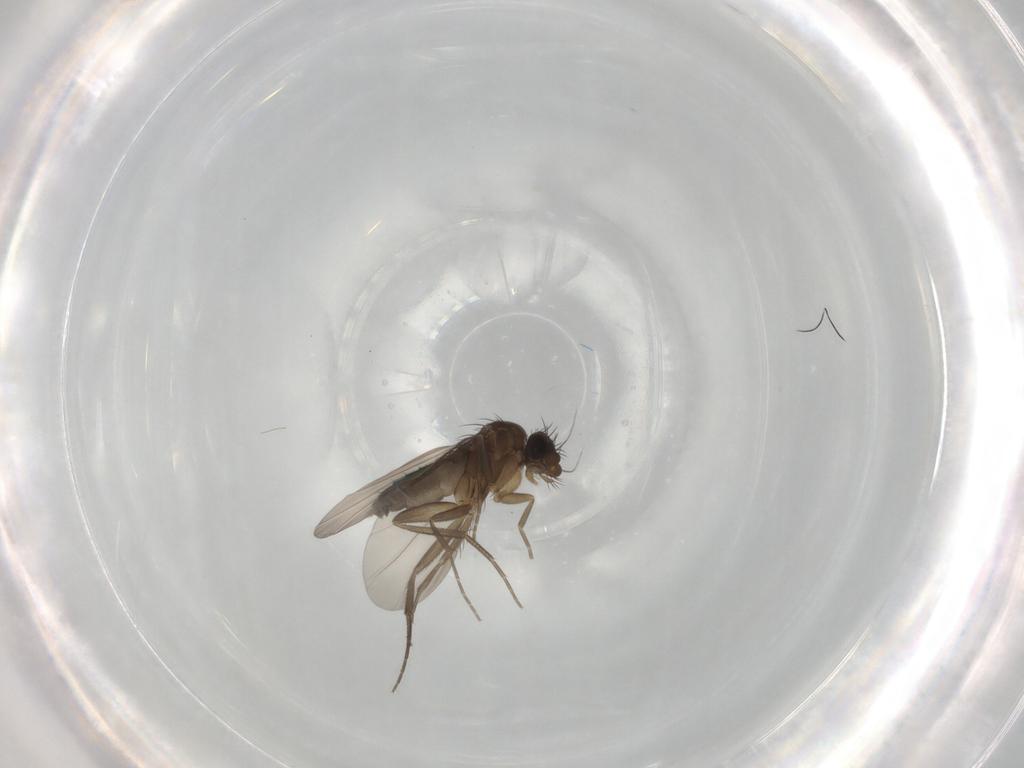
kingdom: Animalia
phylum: Arthropoda
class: Insecta
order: Diptera
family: Phoridae
